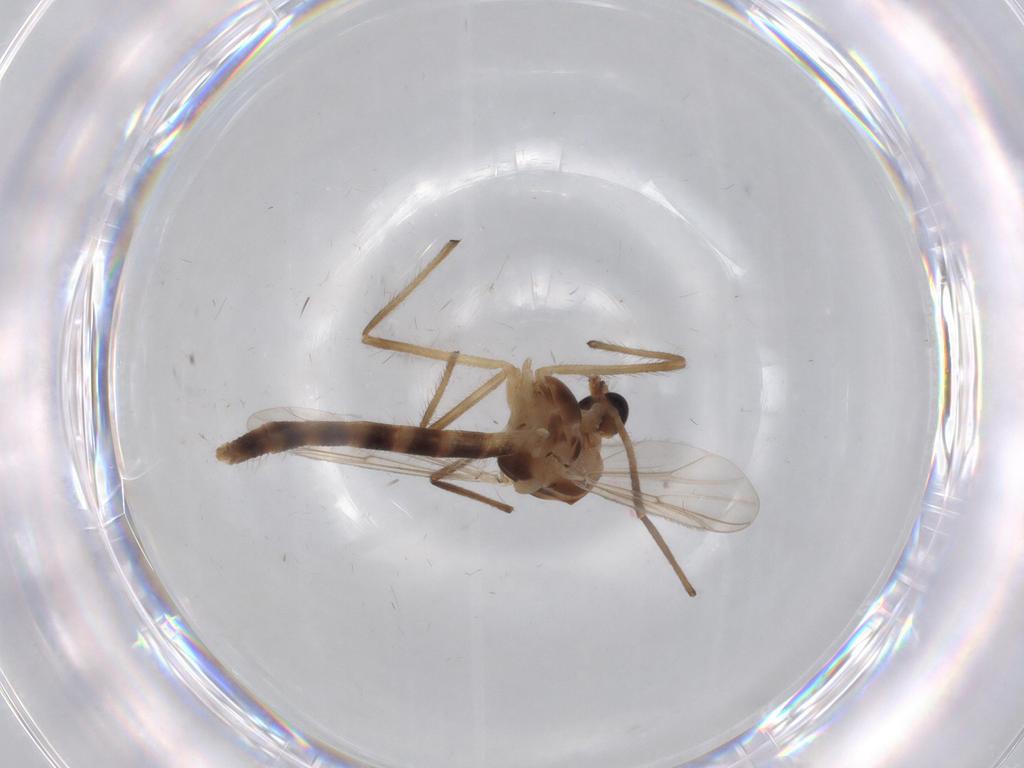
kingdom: Animalia
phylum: Arthropoda
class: Insecta
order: Diptera
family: Chironomidae
